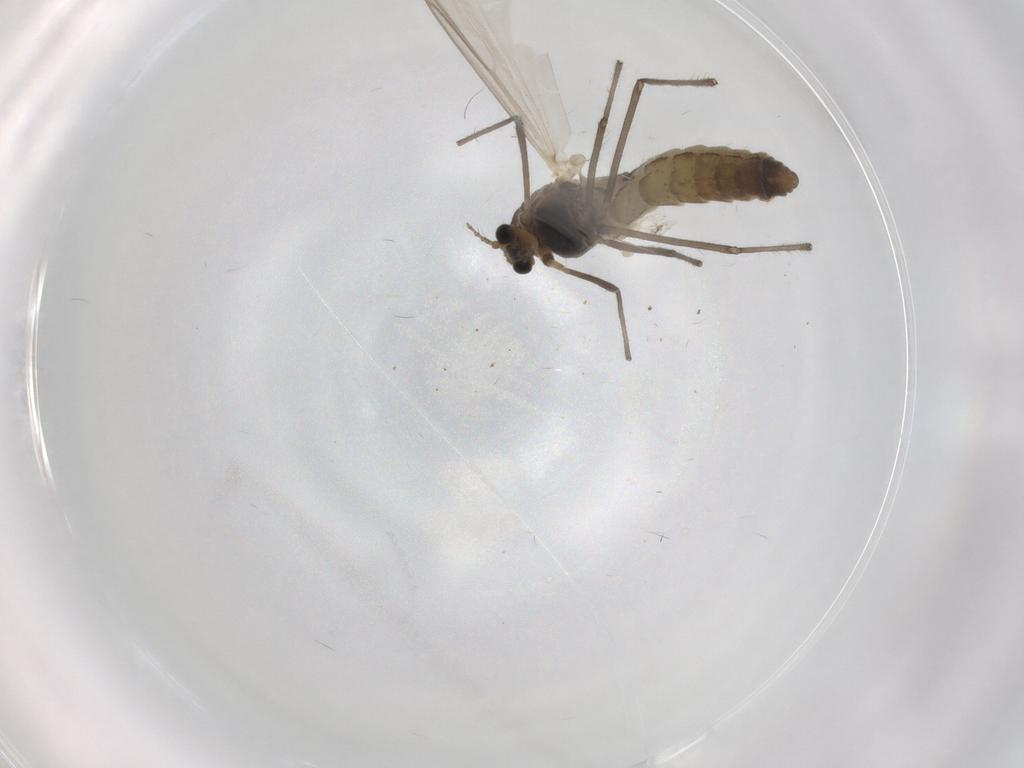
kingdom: Animalia
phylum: Arthropoda
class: Insecta
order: Diptera
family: Chironomidae
